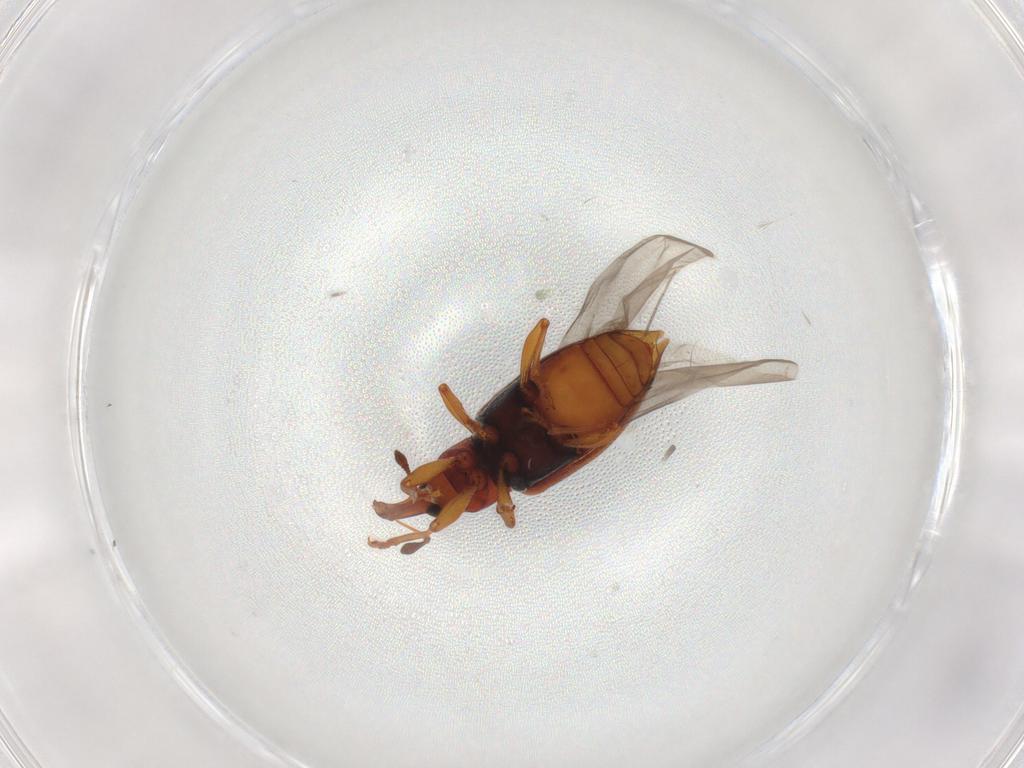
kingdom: Animalia
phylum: Arthropoda
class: Insecta
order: Coleoptera
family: Curculionidae
